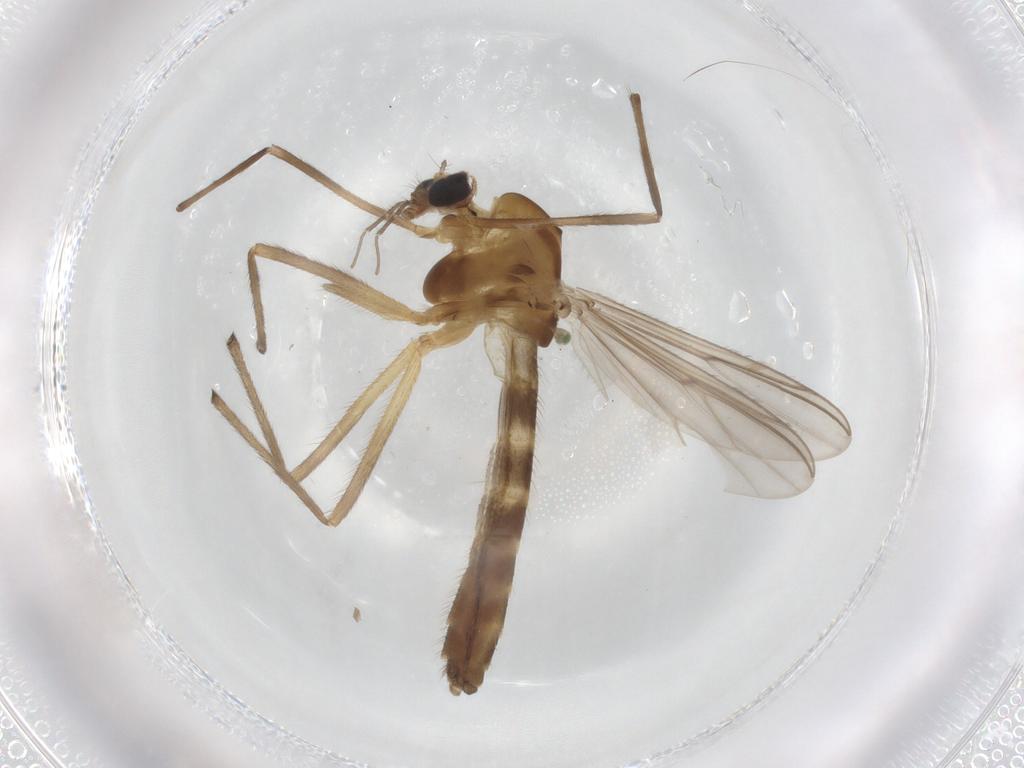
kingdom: Animalia
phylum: Arthropoda
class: Insecta
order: Diptera
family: Chironomidae
